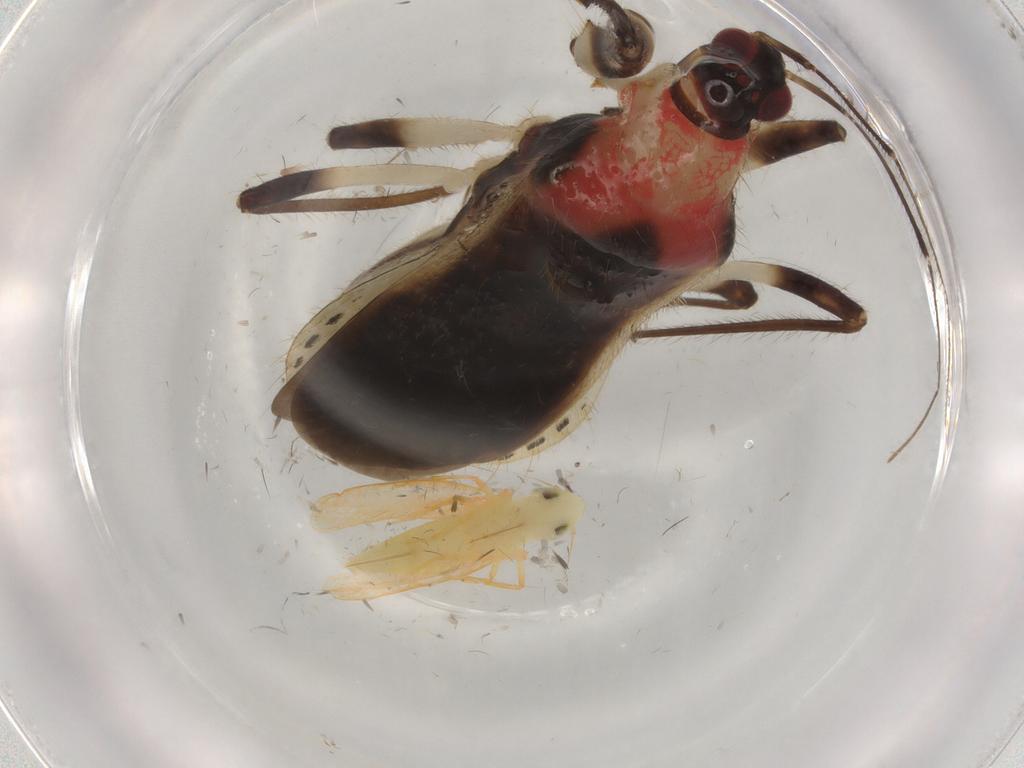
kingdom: Animalia
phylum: Arthropoda
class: Insecta
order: Hemiptera
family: Nabidae
